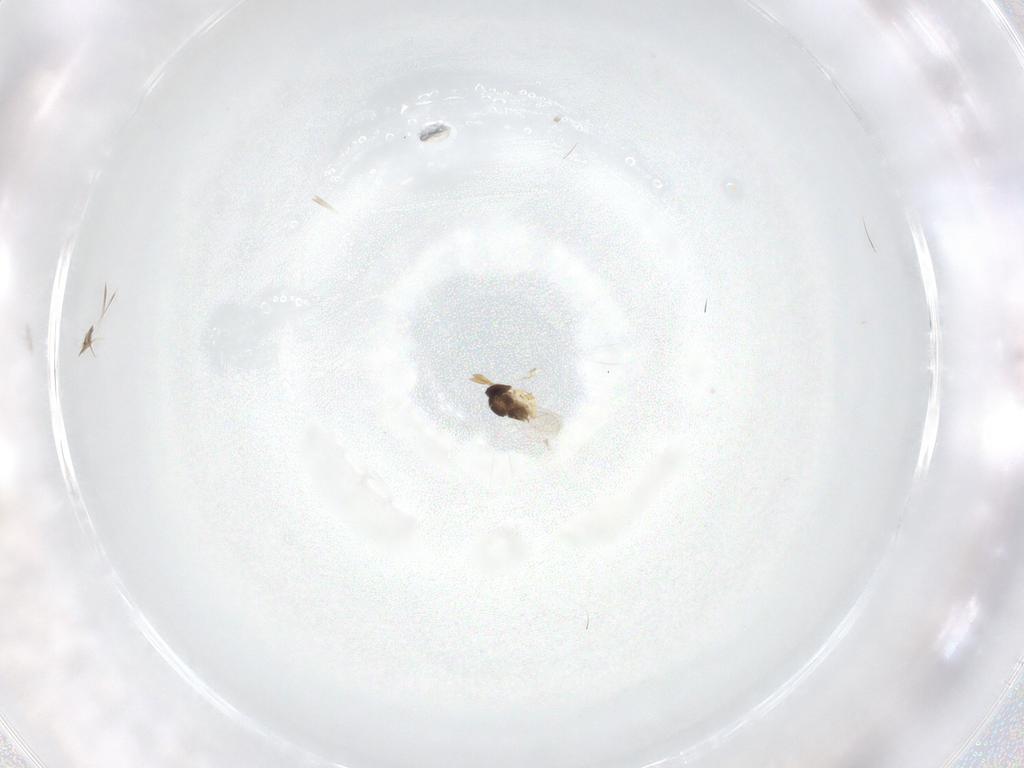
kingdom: Animalia
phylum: Arthropoda
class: Insecta
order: Hymenoptera
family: Encyrtidae
